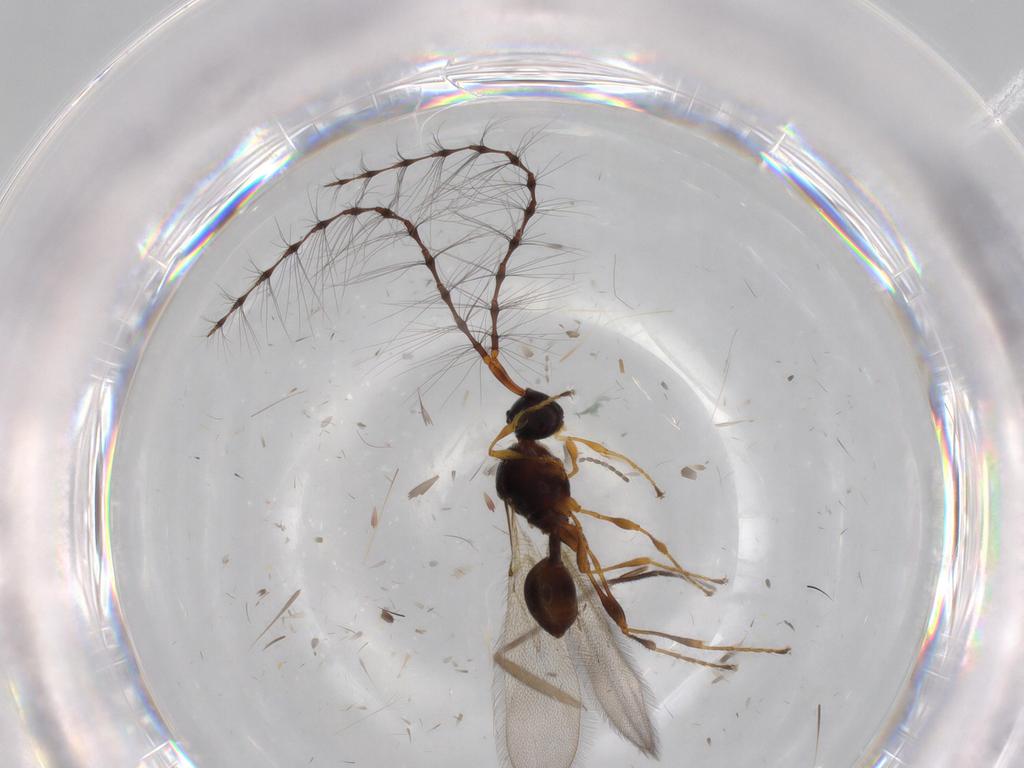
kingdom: Animalia
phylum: Arthropoda
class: Insecta
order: Hymenoptera
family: Diapriidae
